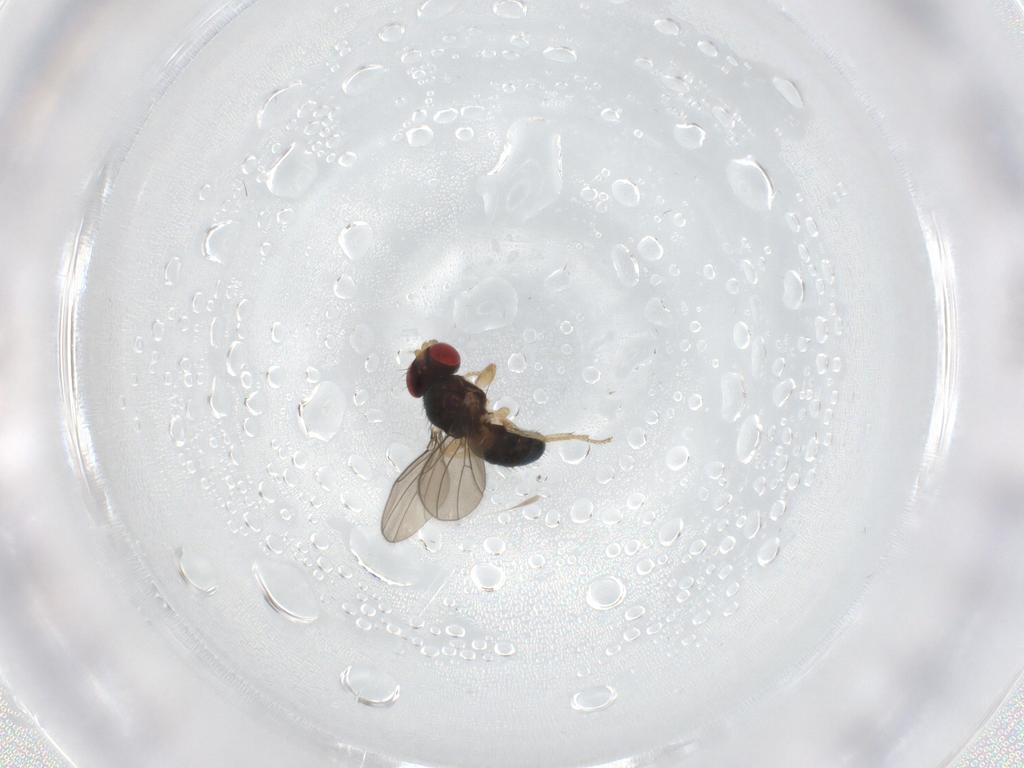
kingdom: Animalia
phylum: Arthropoda
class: Insecta
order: Diptera
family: Drosophilidae
